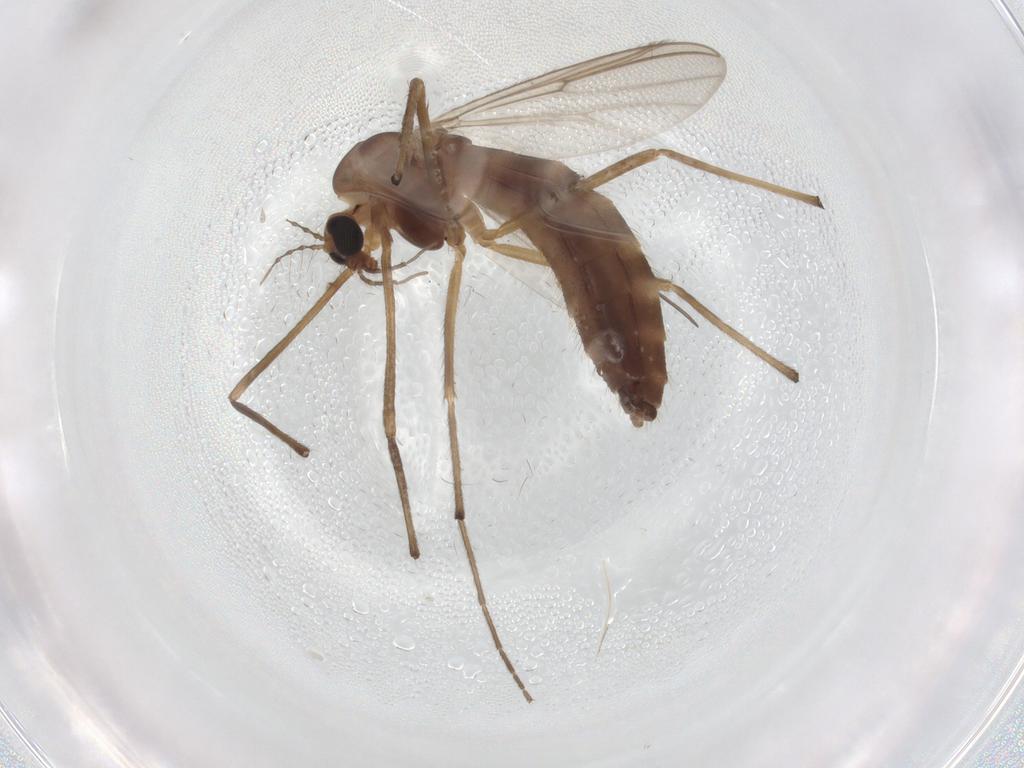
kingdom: Animalia
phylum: Arthropoda
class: Insecta
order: Diptera
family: Chironomidae
